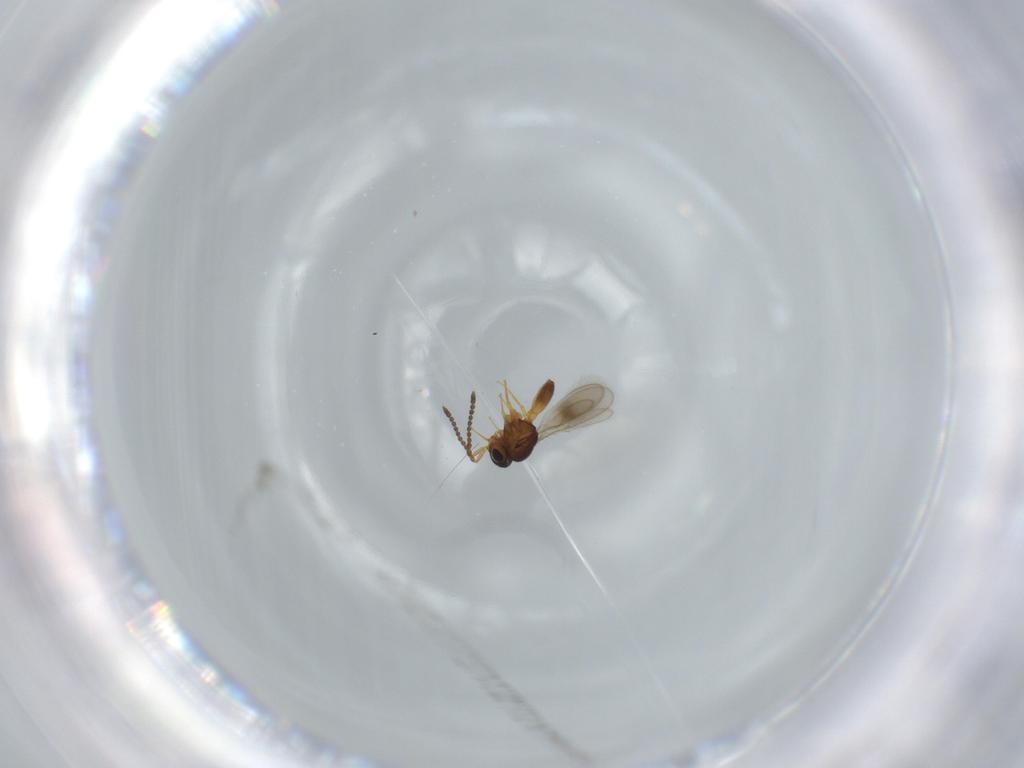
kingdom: Animalia
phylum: Arthropoda
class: Insecta
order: Hymenoptera
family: Scelionidae
